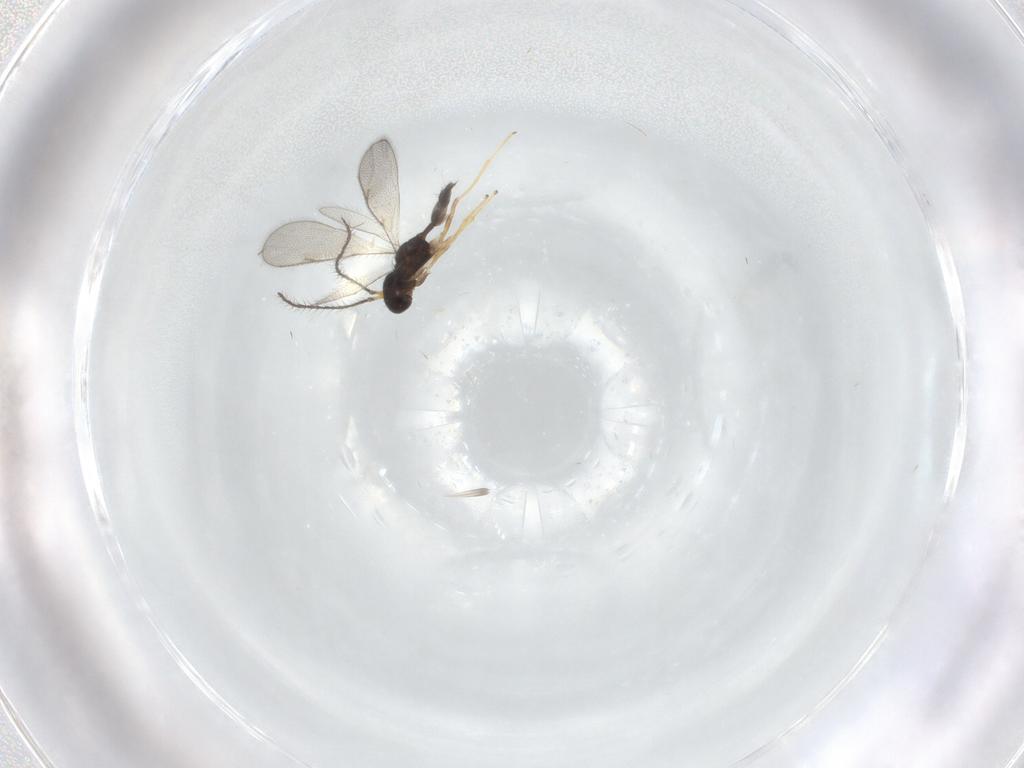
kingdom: Animalia
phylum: Arthropoda
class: Insecta
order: Hymenoptera
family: Diparidae
